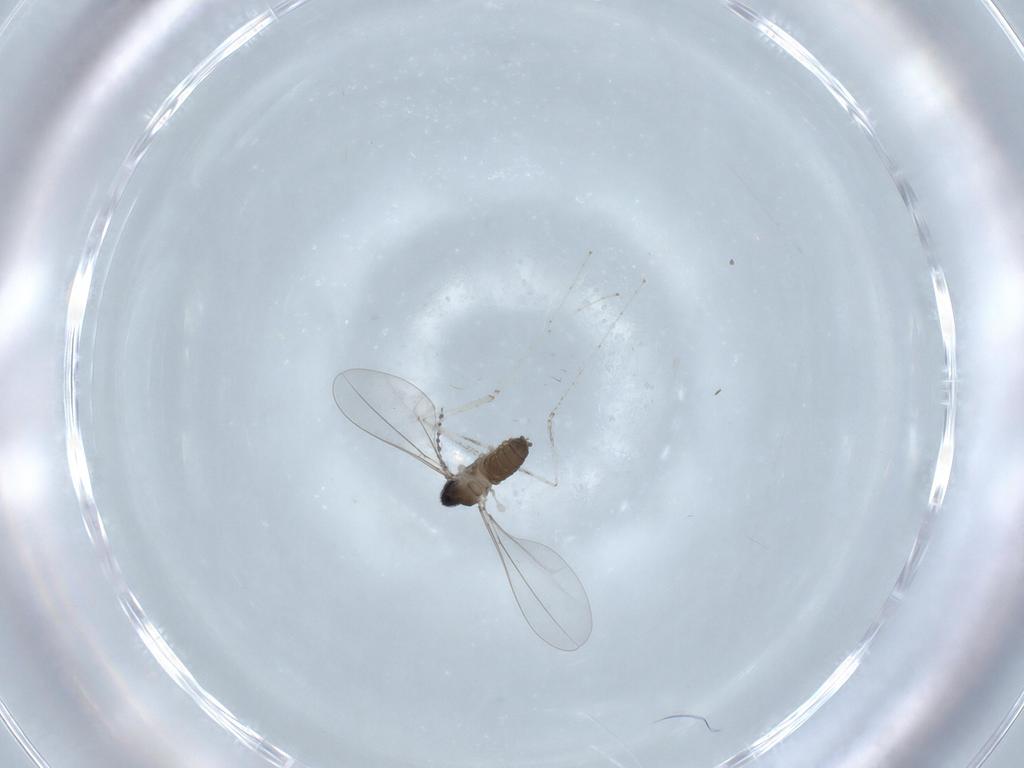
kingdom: Animalia
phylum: Arthropoda
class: Insecta
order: Diptera
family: Cecidomyiidae
